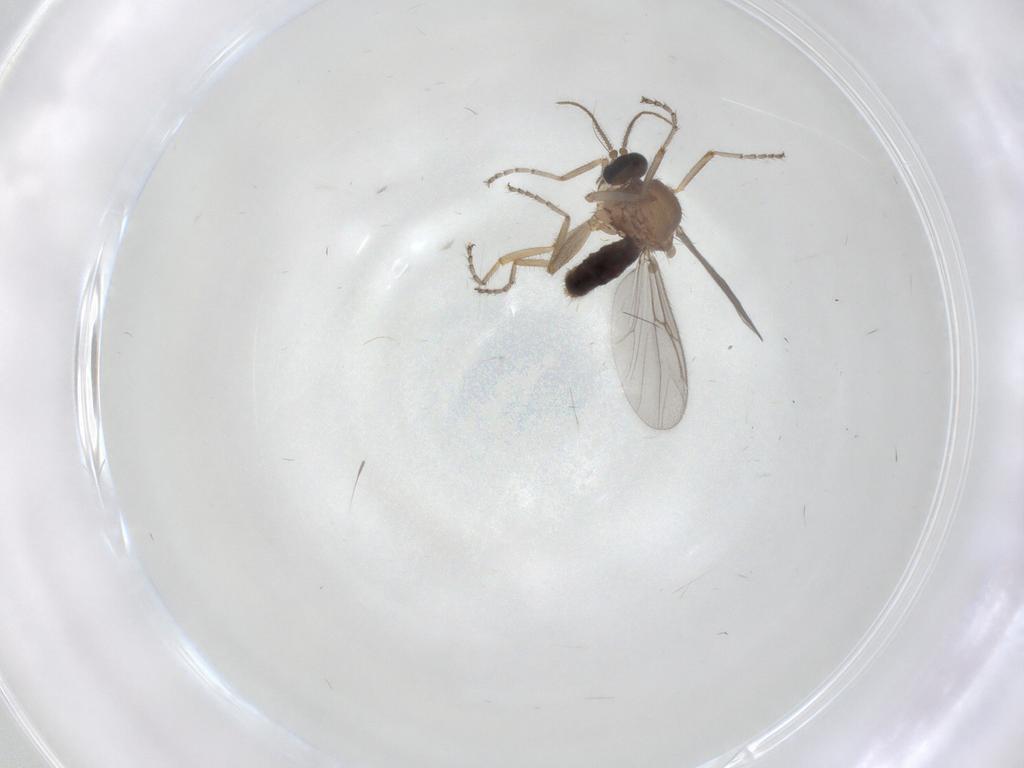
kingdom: Animalia
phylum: Arthropoda
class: Insecta
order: Diptera
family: Ceratopogonidae
